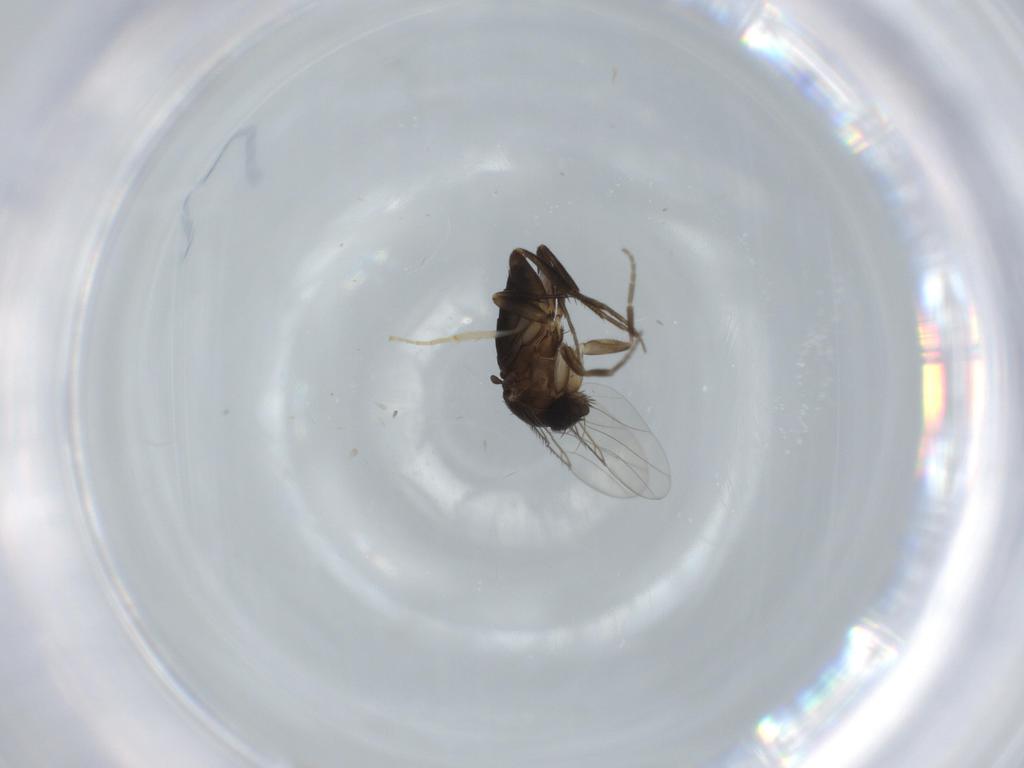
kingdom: Animalia
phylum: Arthropoda
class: Insecta
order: Diptera
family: Phoridae
